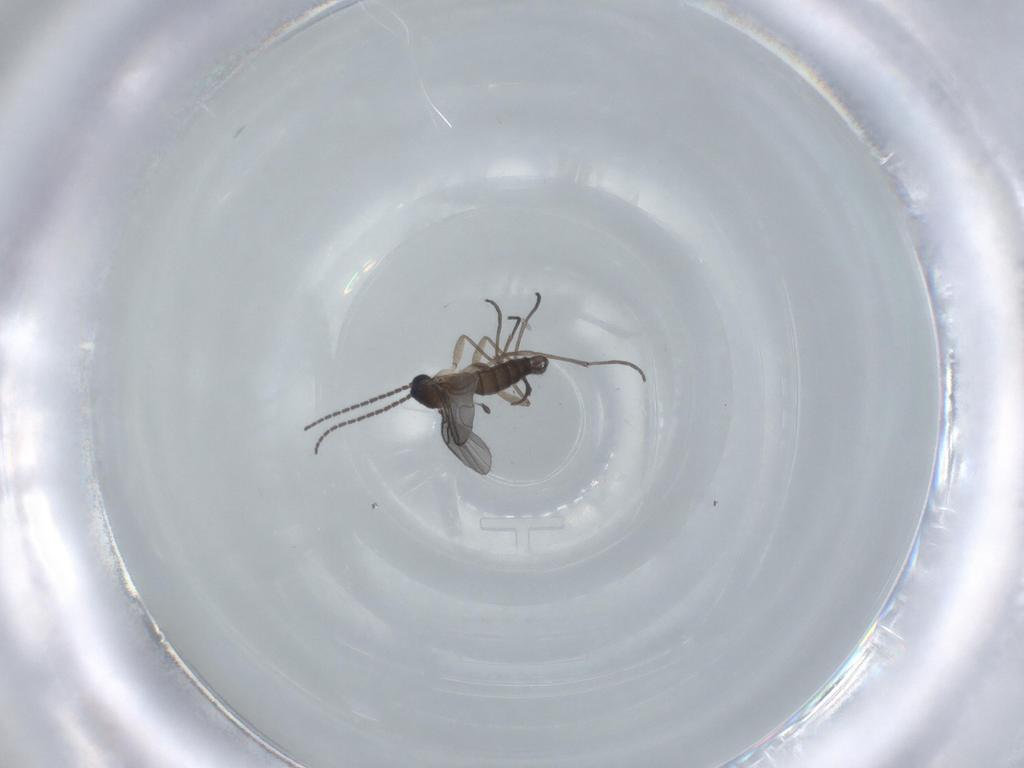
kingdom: Animalia
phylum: Arthropoda
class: Insecta
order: Diptera
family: Sciaridae
